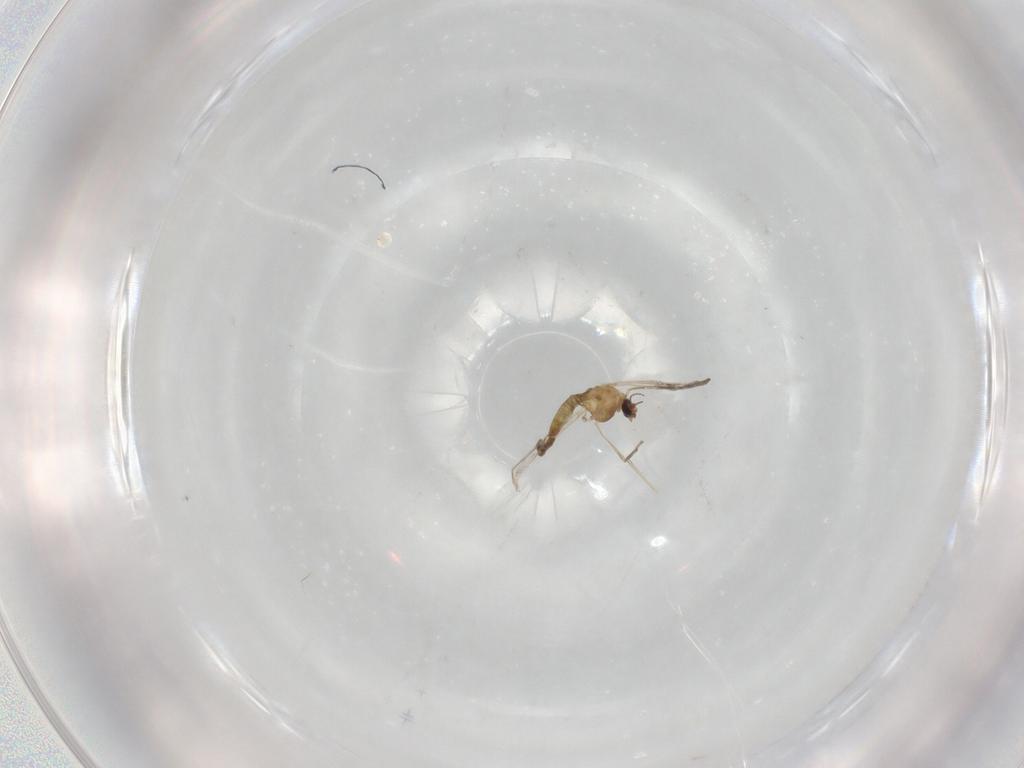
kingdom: Animalia
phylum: Arthropoda
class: Insecta
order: Diptera
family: Chironomidae
